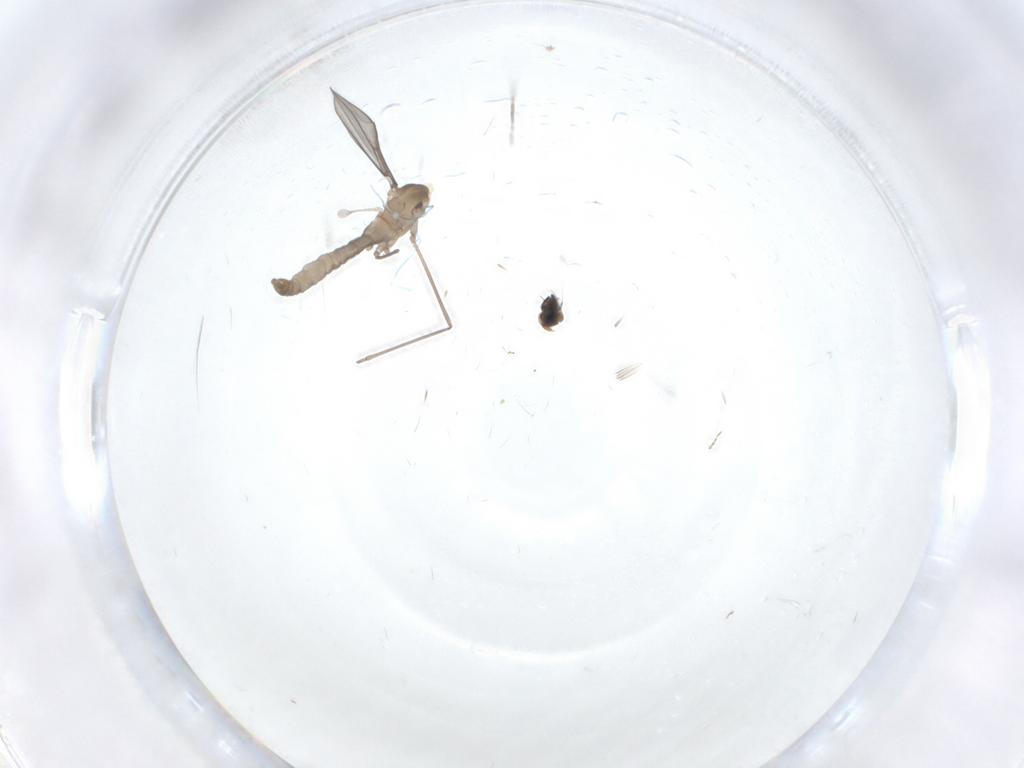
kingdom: Animalia
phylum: Arthropoda
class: Insecta
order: Diptera
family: Chironomidae
